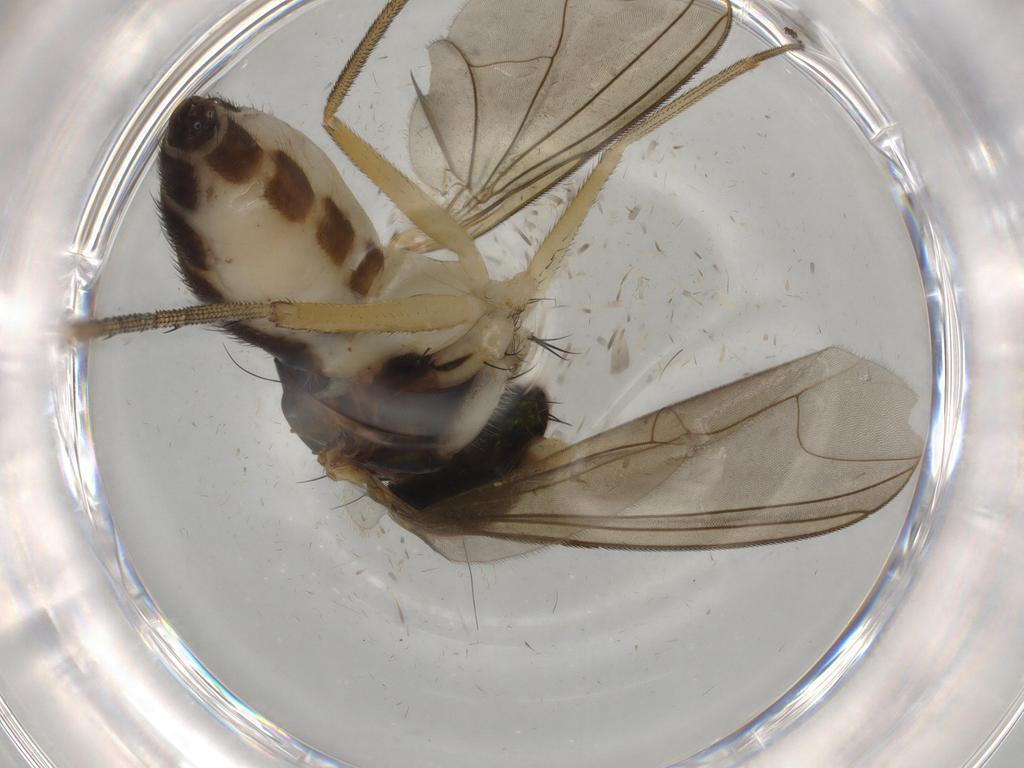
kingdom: Animalia
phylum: Arthropoda
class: Insecta
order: Diptera
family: Dolichopodidae
